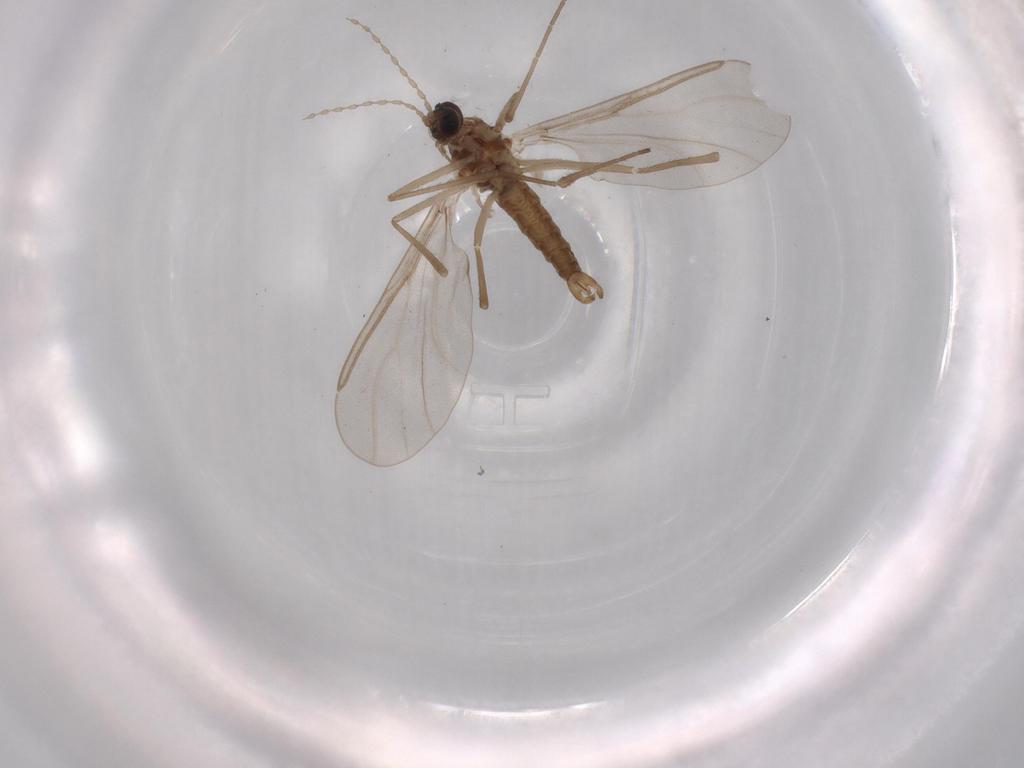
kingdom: Animalia
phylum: Arthropoda
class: Insecta
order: Diptera
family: Cecidomyiidae
